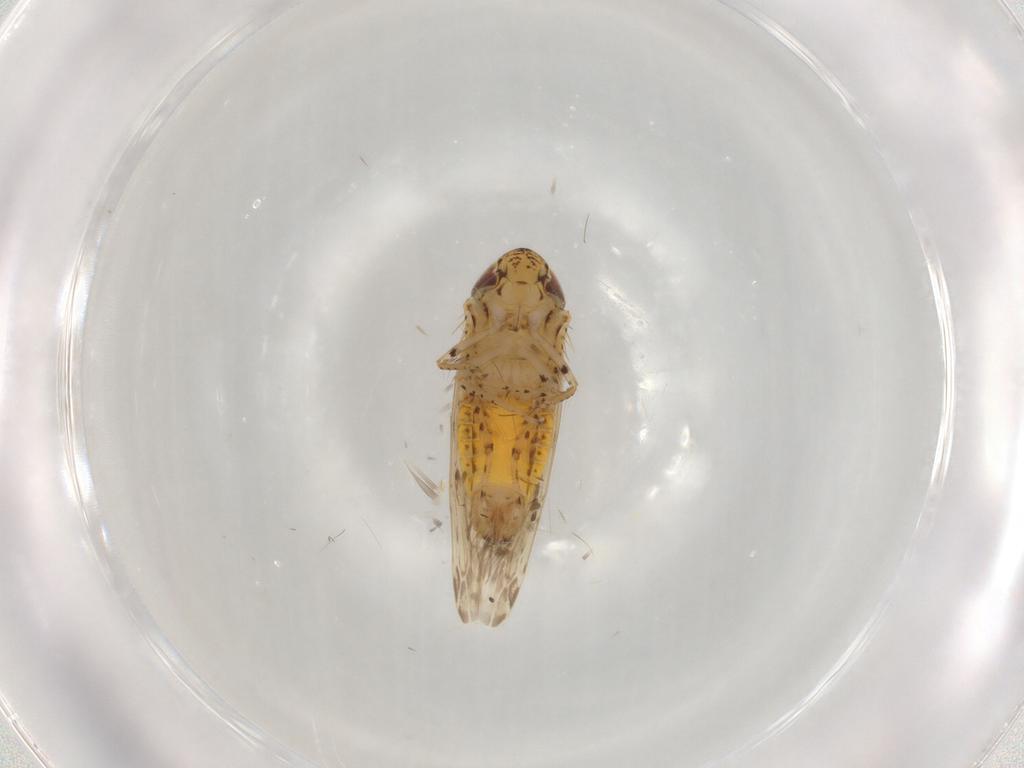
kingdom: Animalia
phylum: Arthropoda
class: Insecta
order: Hemiptera
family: Cicadellidae
